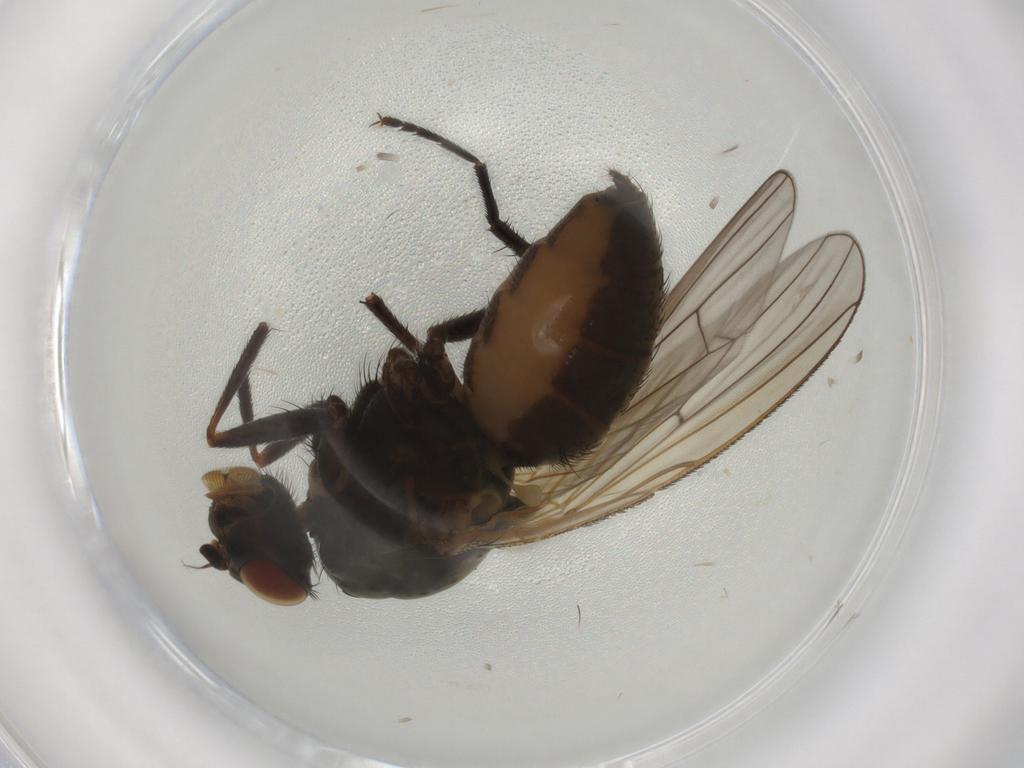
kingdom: Animalia
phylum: Arthropoda
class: Insecta
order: Diptera
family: Anthomyiidae
